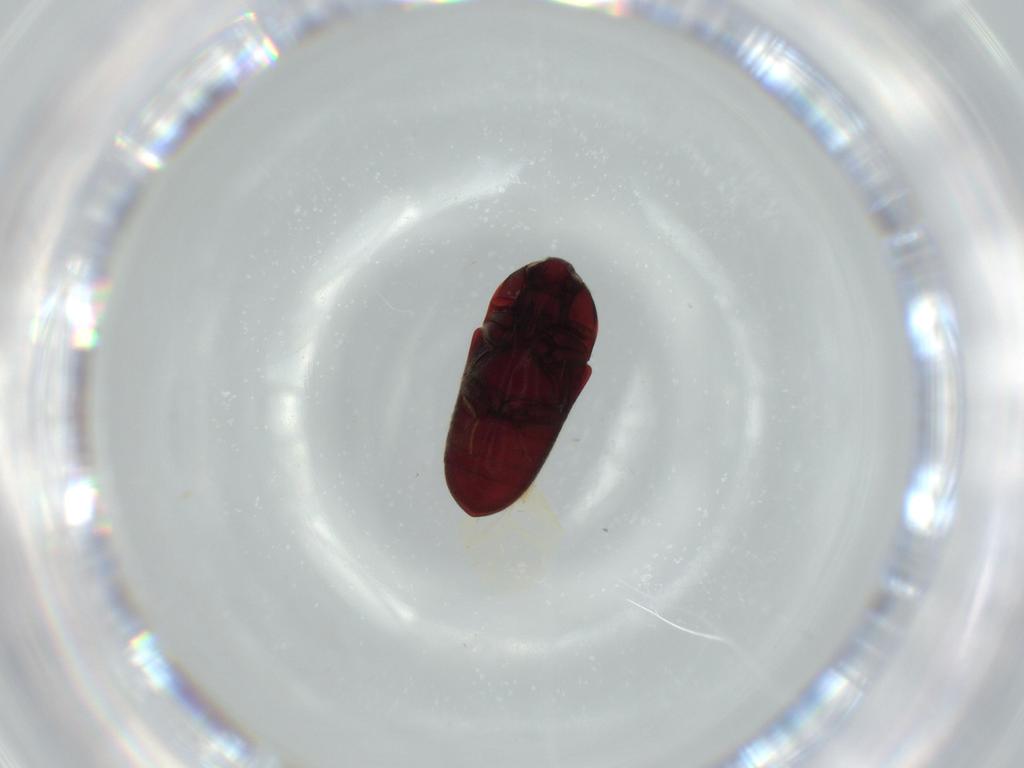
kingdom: Animalia
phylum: Arthropoda
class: Insecta
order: Coleoptera
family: Throscidae
